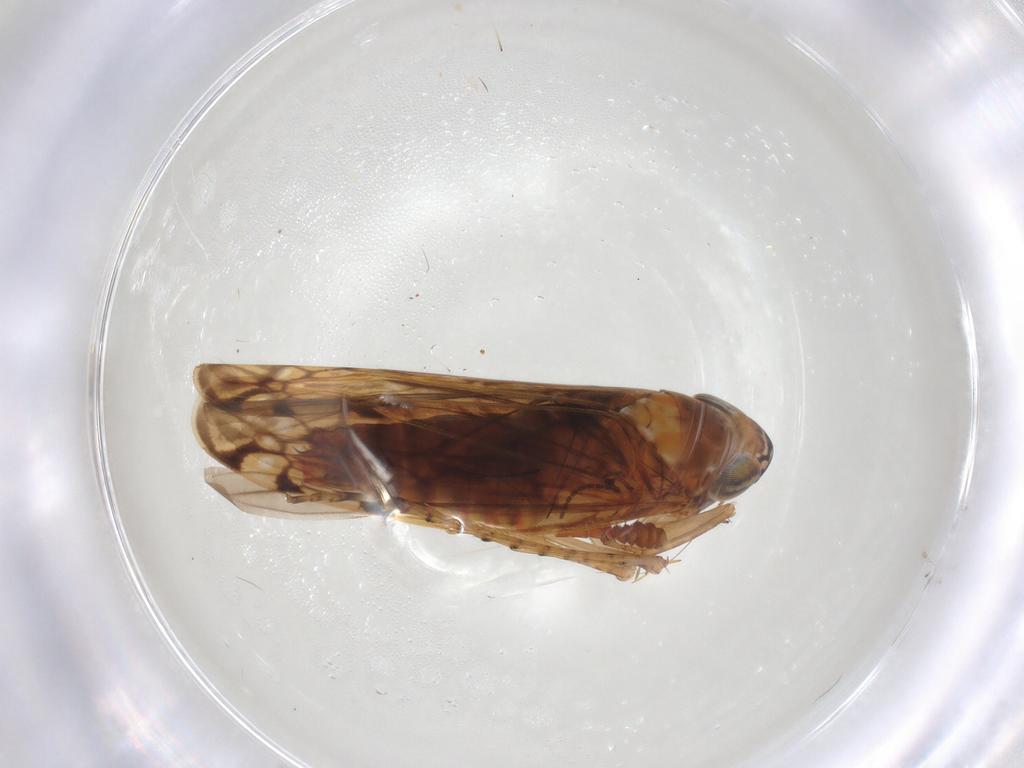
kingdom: Animalia
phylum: Arthropoda
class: Insecta
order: Hemiptera
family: Cicadellidae
